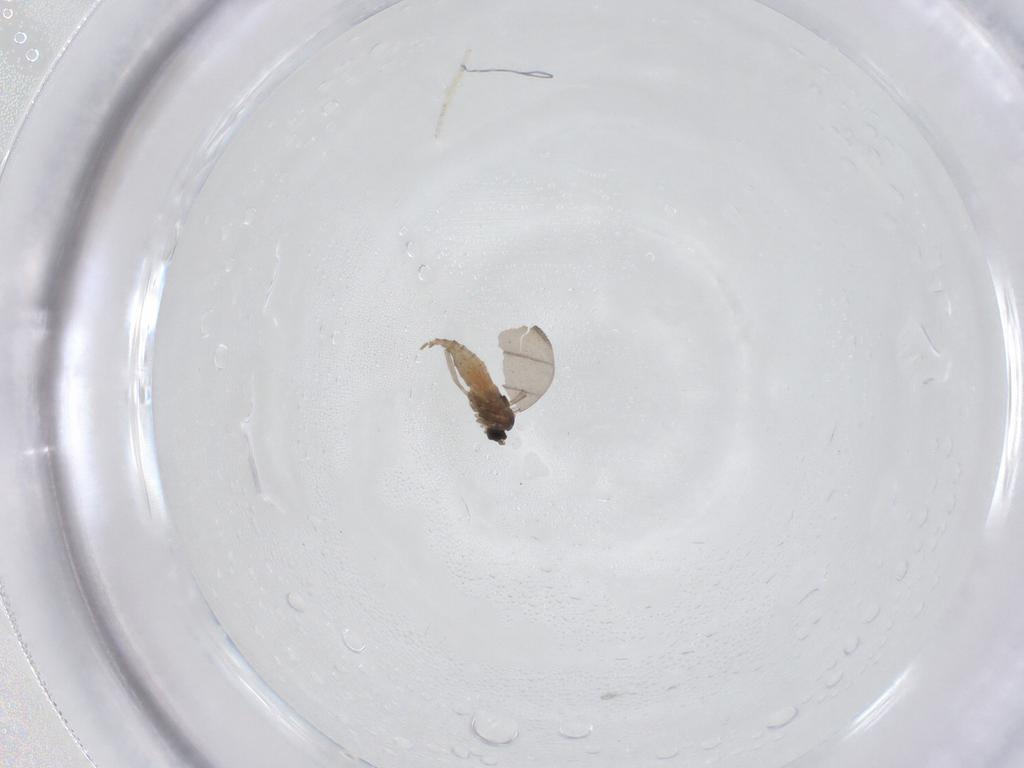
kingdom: Animalia
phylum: Arthropoda
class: Insecta
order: Diptera
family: Cecidomyiidae
